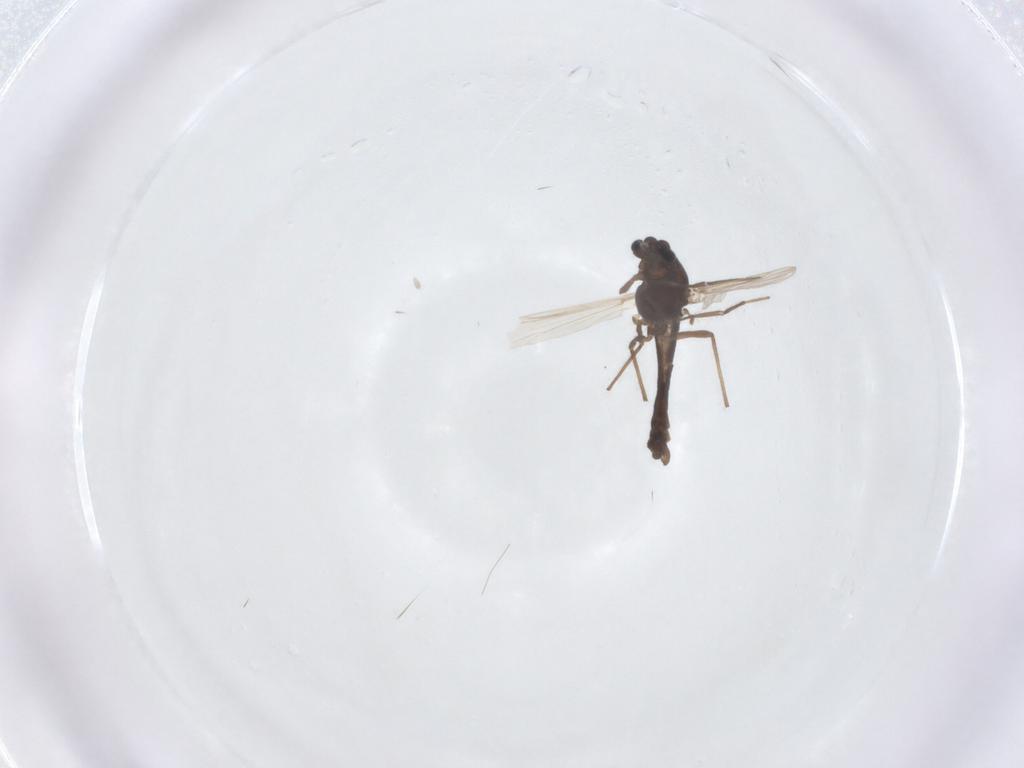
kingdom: Animalia
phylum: Arthropoda
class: Insecta
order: Diptera
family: Chironomidae
